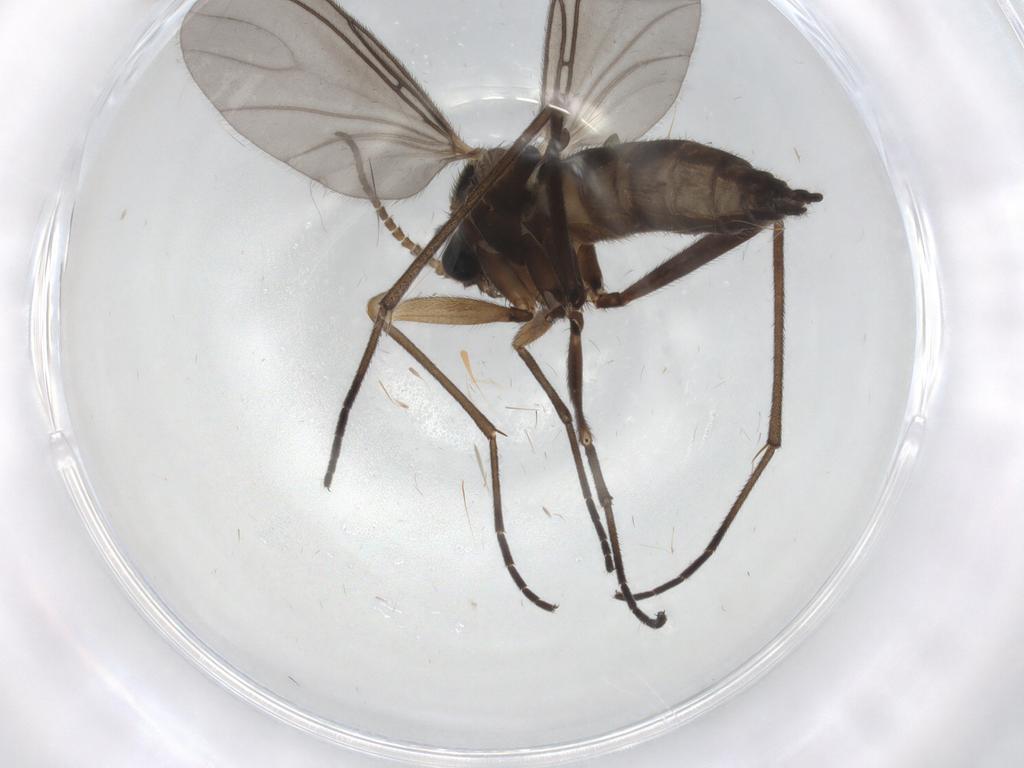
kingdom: Animalia
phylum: Arthropoda
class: Insecta
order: Diptera
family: Sciaridae
